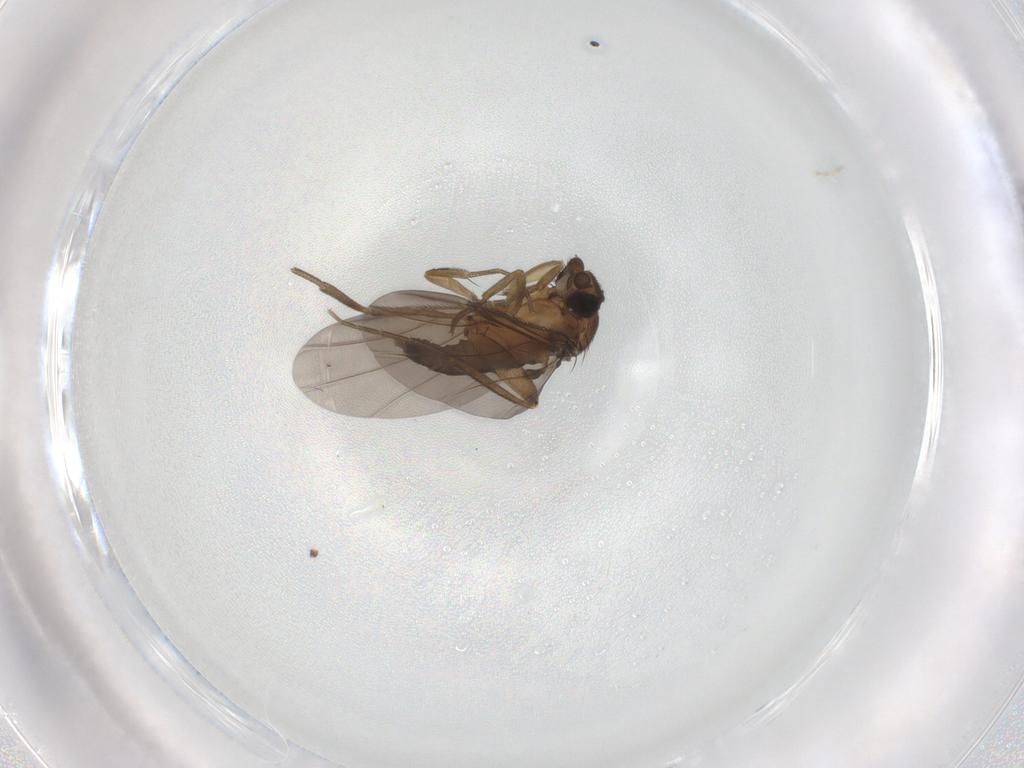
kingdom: Animalia
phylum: Arthropoda
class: Insecta
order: Diptera
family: Phoridae
